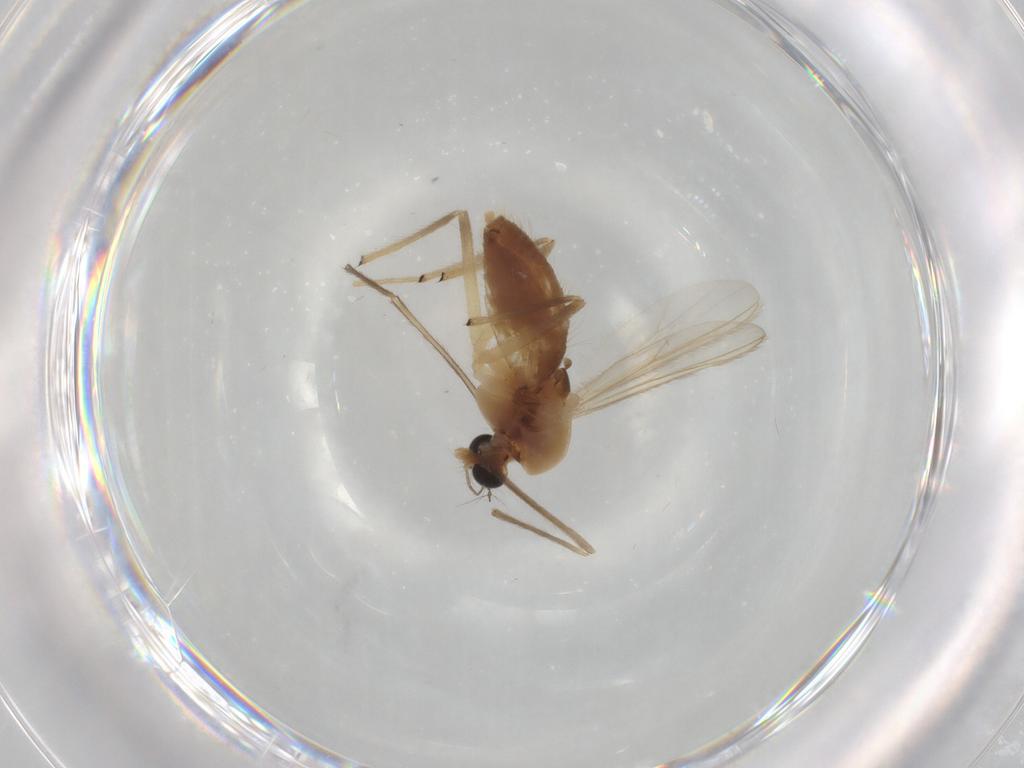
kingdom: Animalia
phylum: Arthropoda
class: Insecta
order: Diptera
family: Chironomidae
